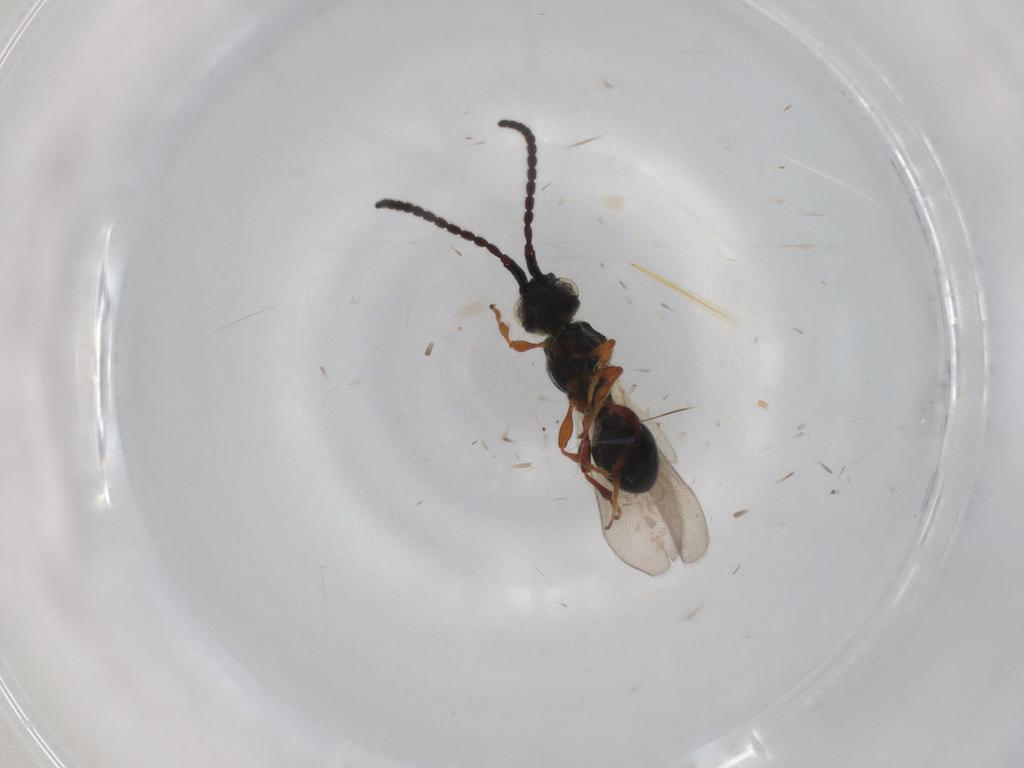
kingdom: Animalia
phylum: Arthropoda
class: Insecta
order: Hymenoptera
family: Diapriidae
